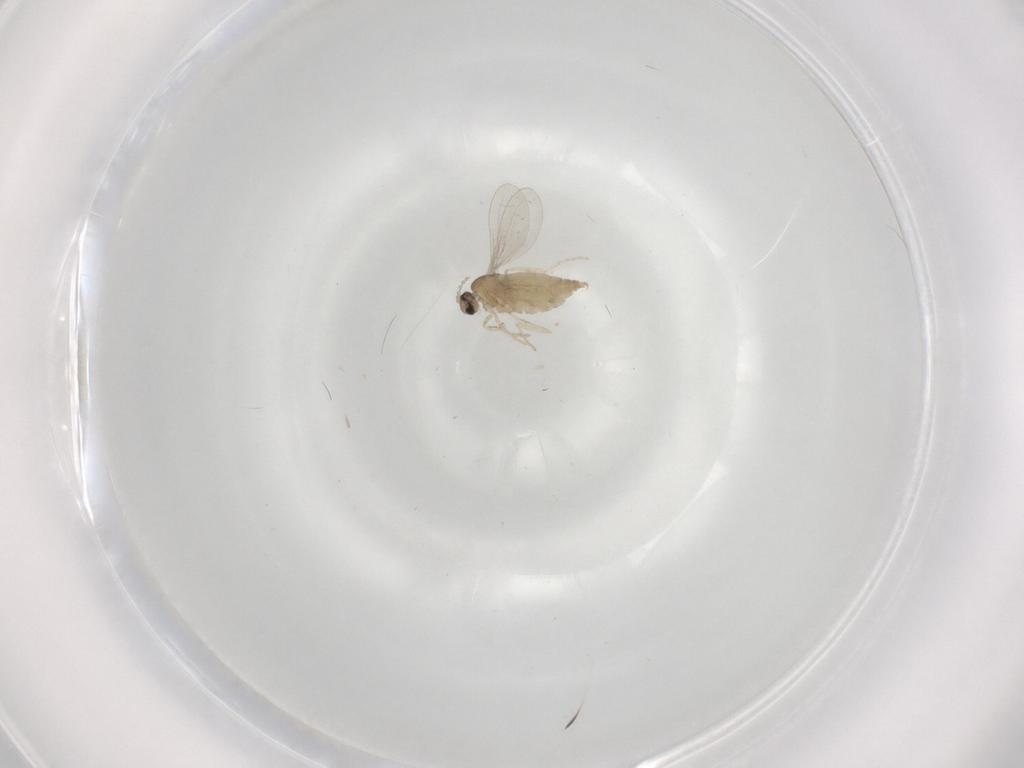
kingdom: Animalia
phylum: Arthropoda
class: Insecta
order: Diptera
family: Cecidomyiidae
